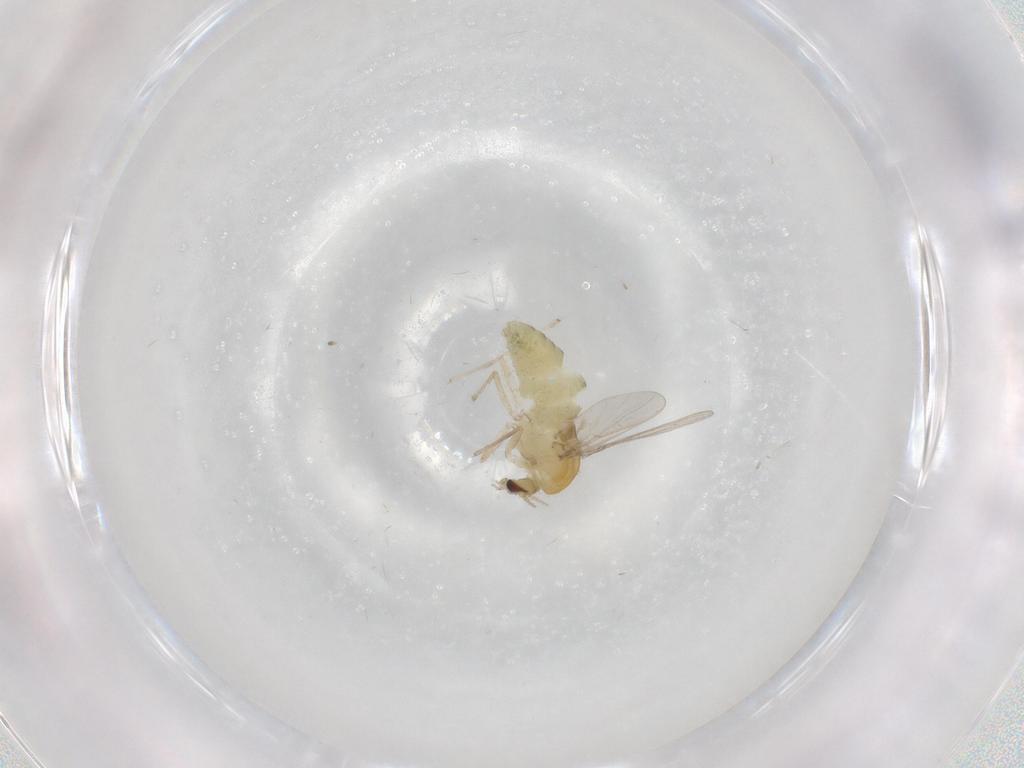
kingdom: Animalia
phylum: Arthropoda
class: Insecta
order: Diptera
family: Chironomidae
